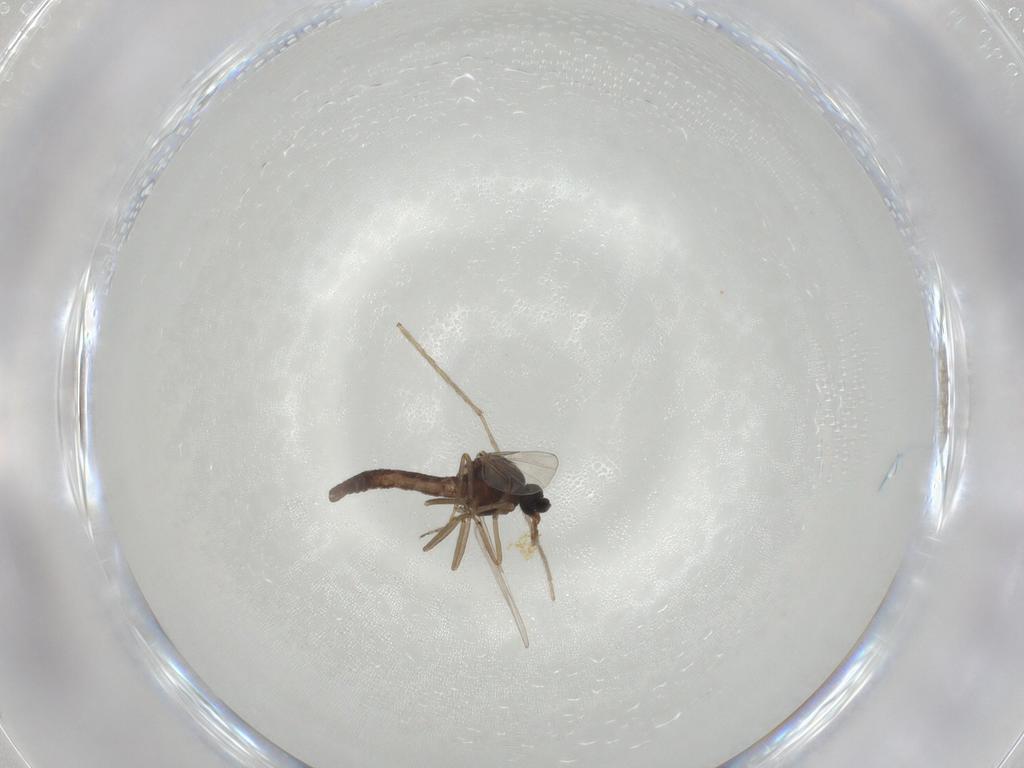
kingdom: Animalia
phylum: Arthropoda
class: Insecta
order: Diptera
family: Ceratopogonidae
